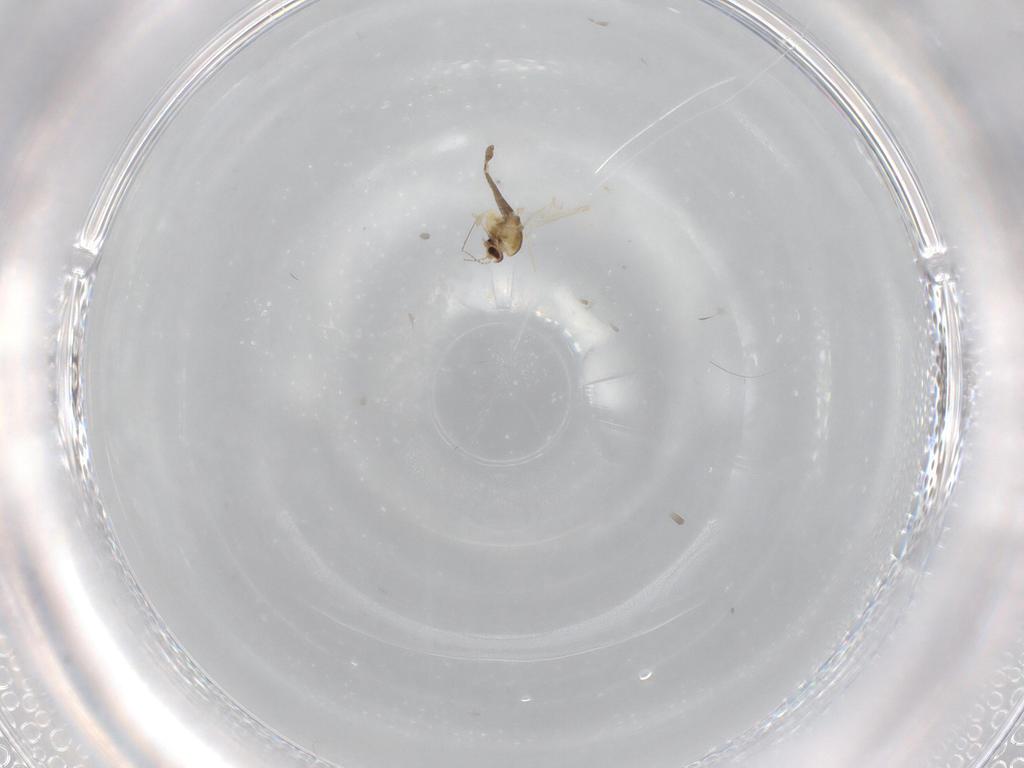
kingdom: Animalia
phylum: Arthropoda
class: Insecta
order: Diptera
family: Chironomidae
